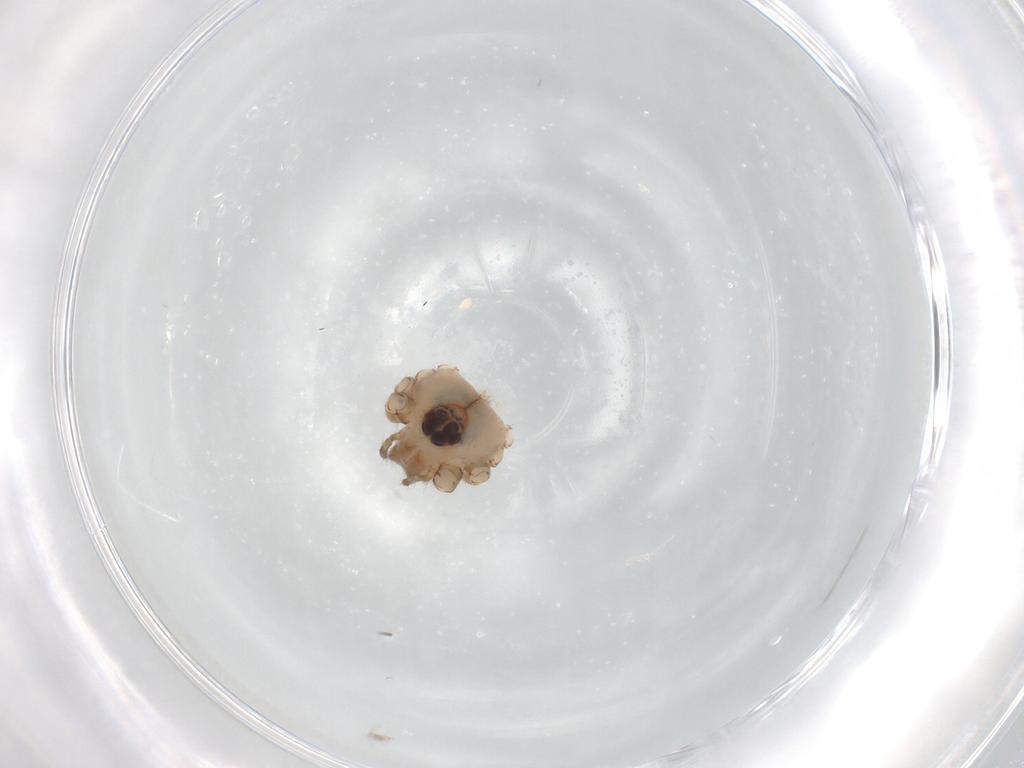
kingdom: Animalia
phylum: Arthropoda
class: Arachnida
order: Araneae
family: Pholcidae
